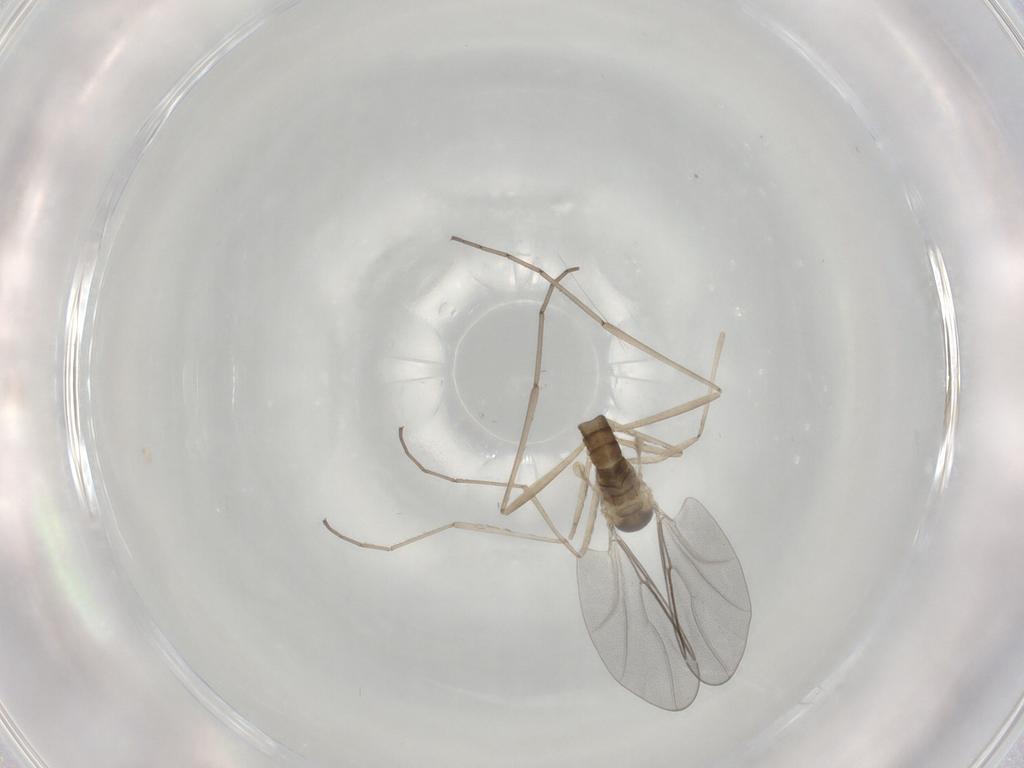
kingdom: Animalia
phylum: Arthropoda
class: Insecta
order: Diptera
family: Cecidomyiidae
